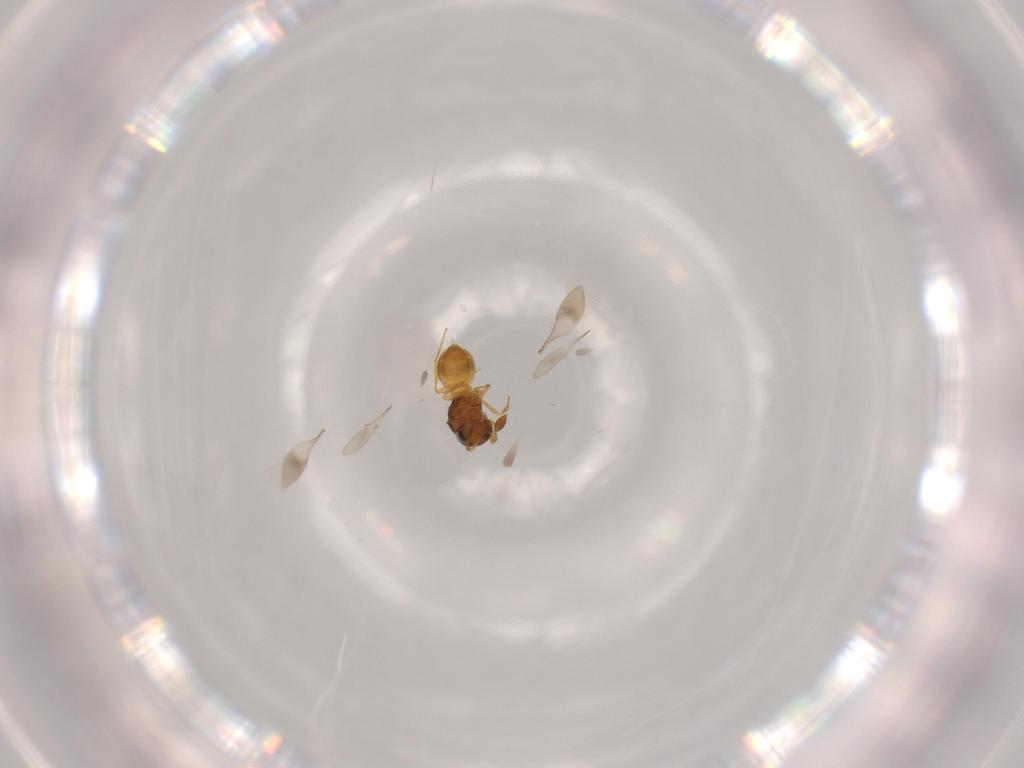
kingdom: Animalia
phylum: Arthropoda
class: Insecta
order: Hymenoptera
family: Scelionidae
